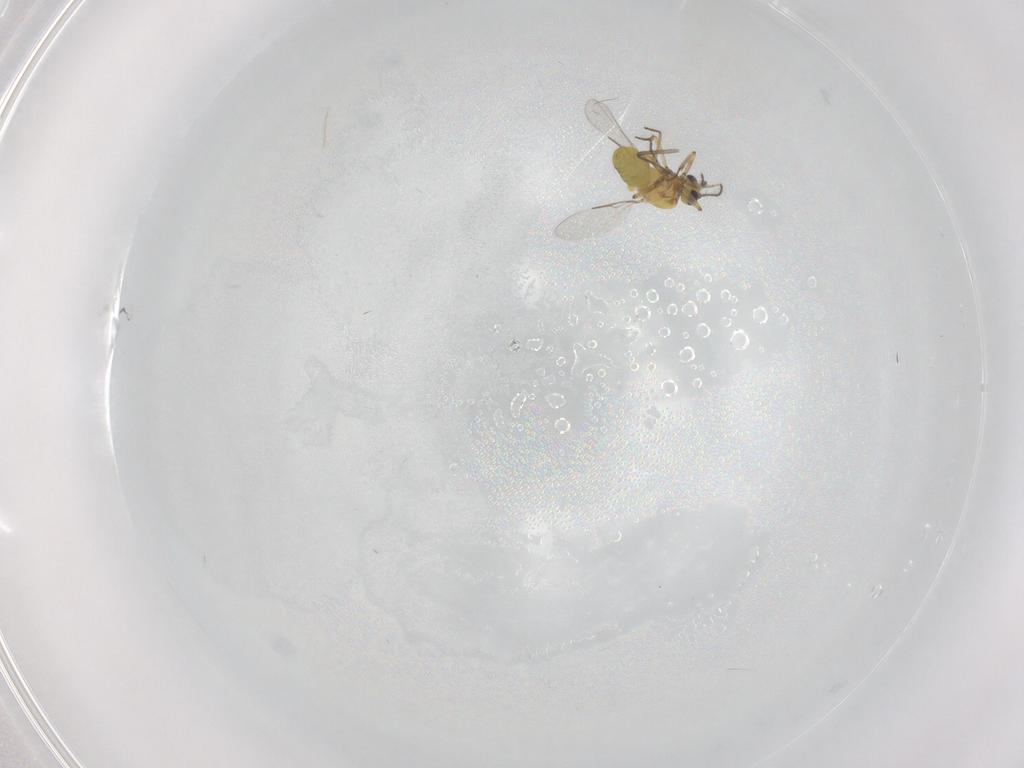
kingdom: Animalia
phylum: Arthropoda
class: Insecta
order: Diptera
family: Ceratopogonidae
